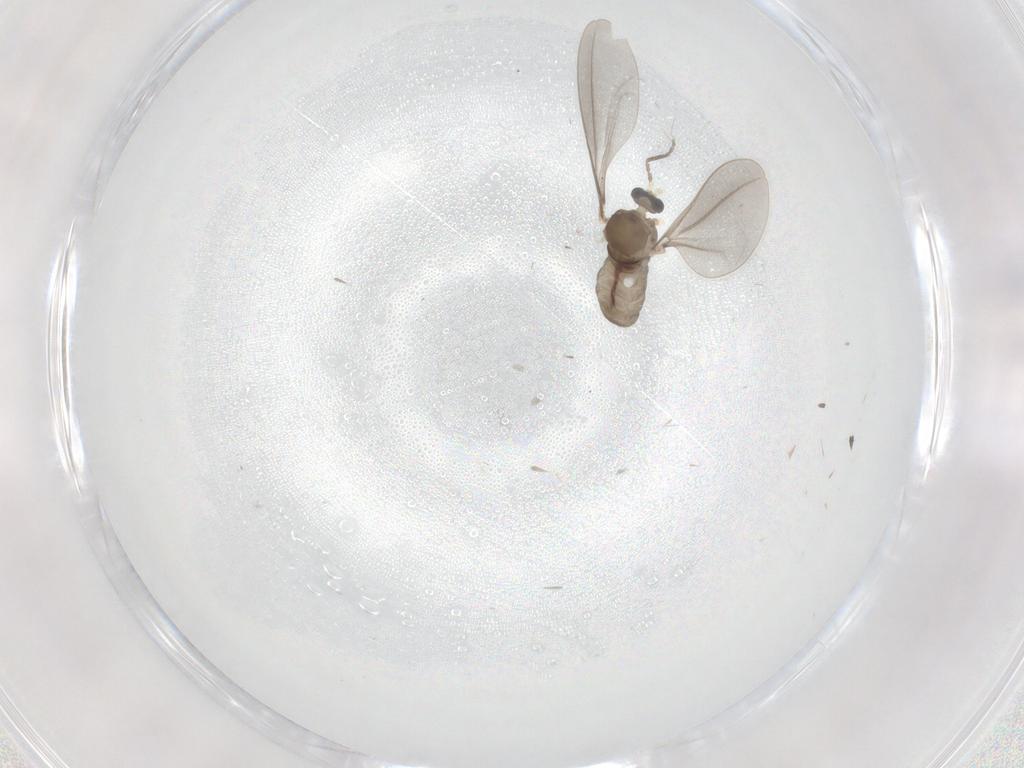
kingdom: Animalia
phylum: Arthropoda
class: Insecta
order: Diptera
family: Cecidomyiidae
